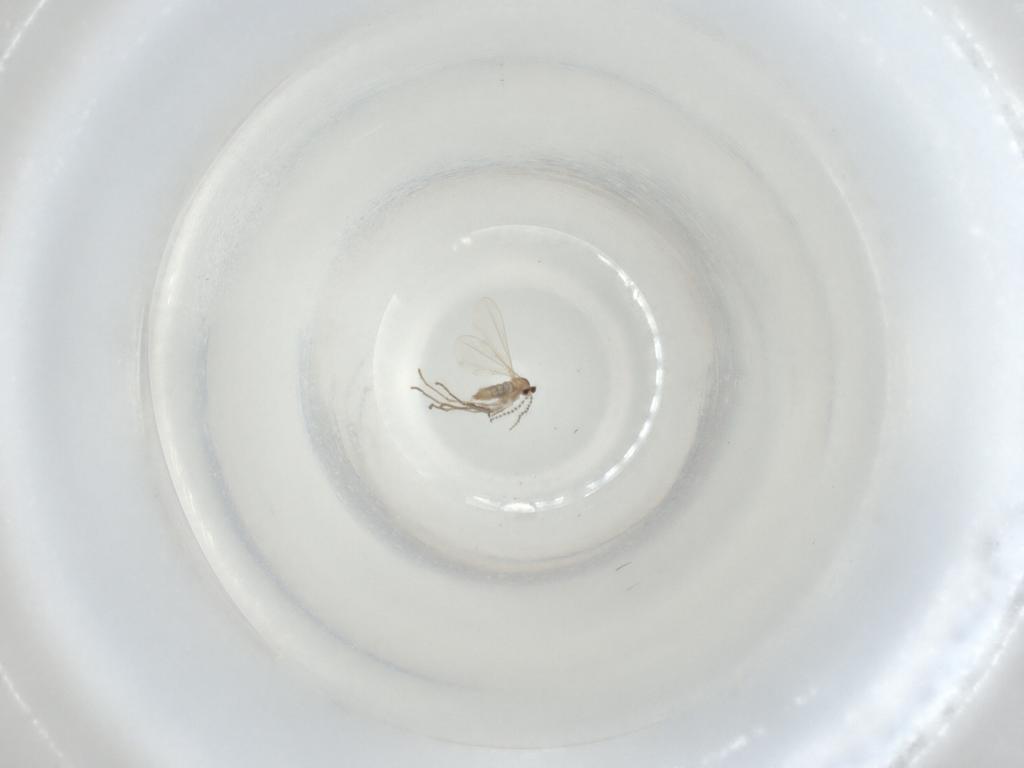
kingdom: Animalia
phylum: Arthropoda
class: Insecta
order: Diptera
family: Cecidomyiidae
